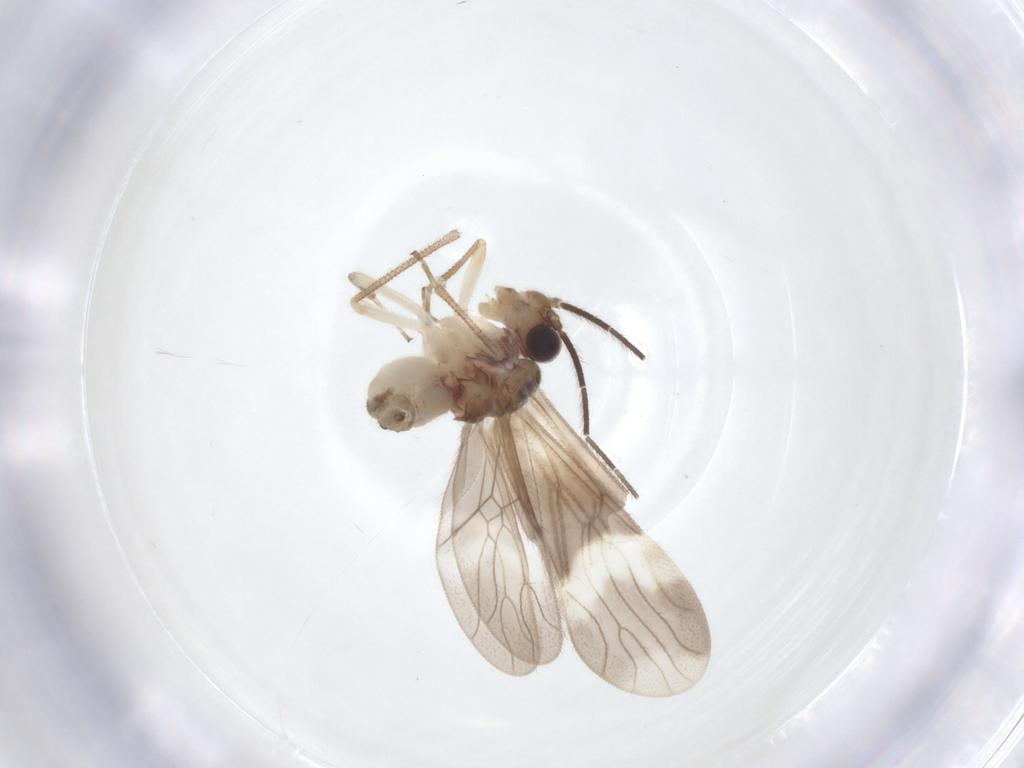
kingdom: Animalia
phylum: Arthropoda
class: Insecta
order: Psocodea
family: Amphipsocidae
